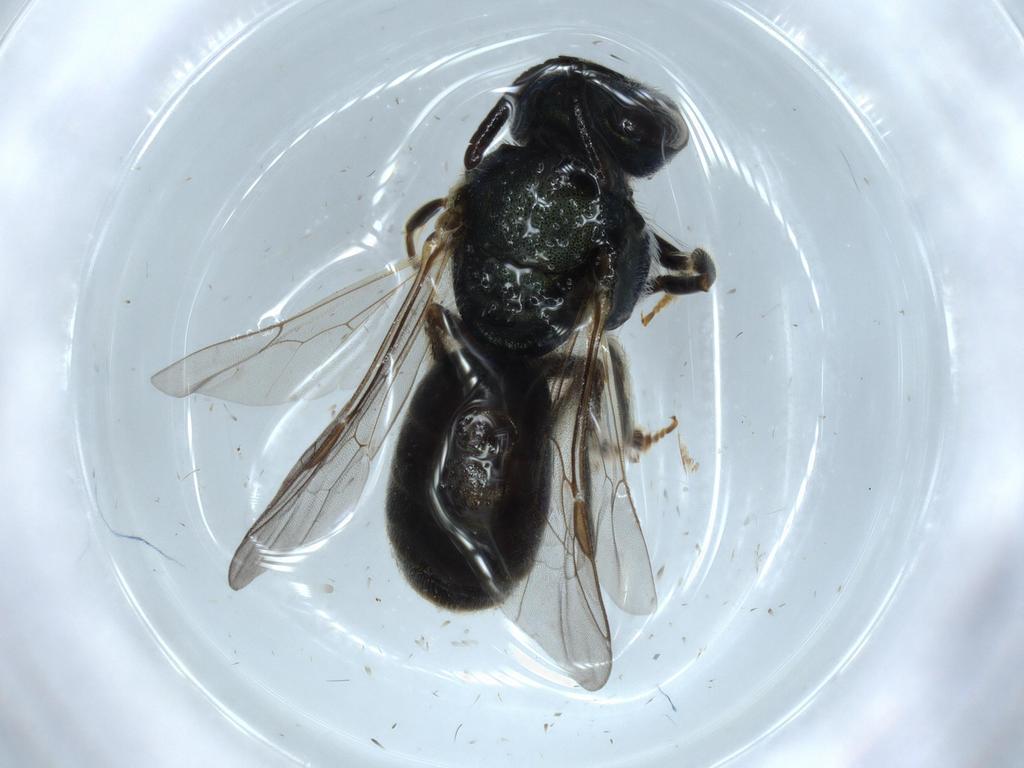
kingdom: Animalia
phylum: Arthropoda
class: Insecta
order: Hymenoptera
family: Halictidae
